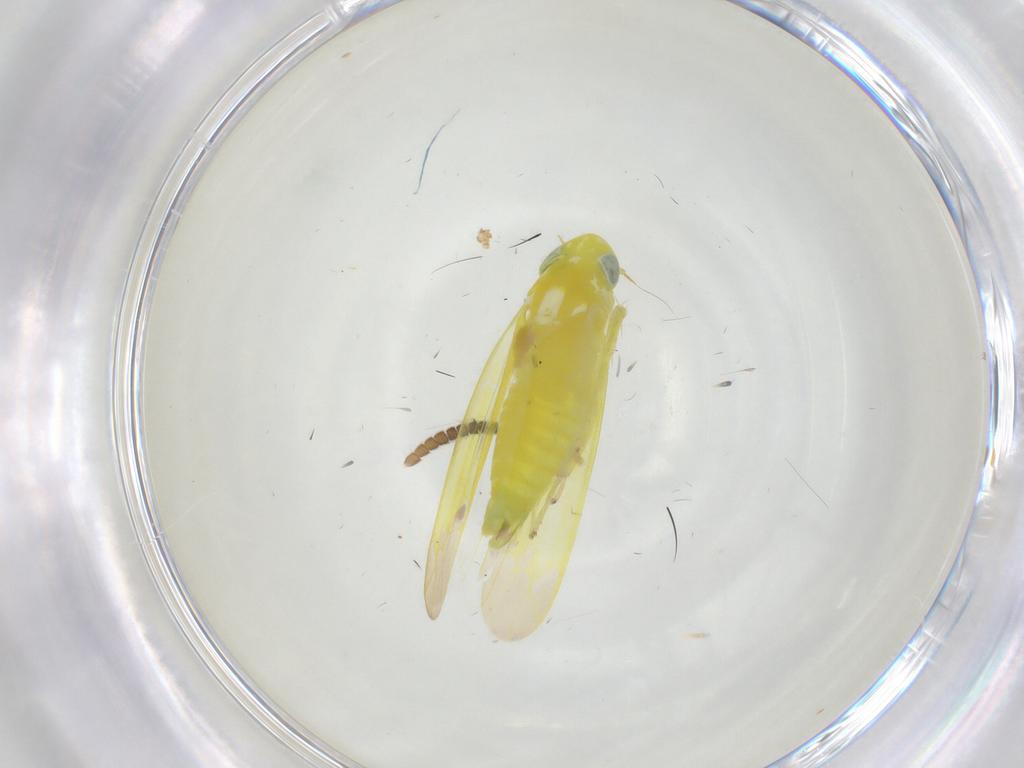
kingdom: Animalia
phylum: Arthropoda
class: Insecta
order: Hemiptera
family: Cicadellidae
